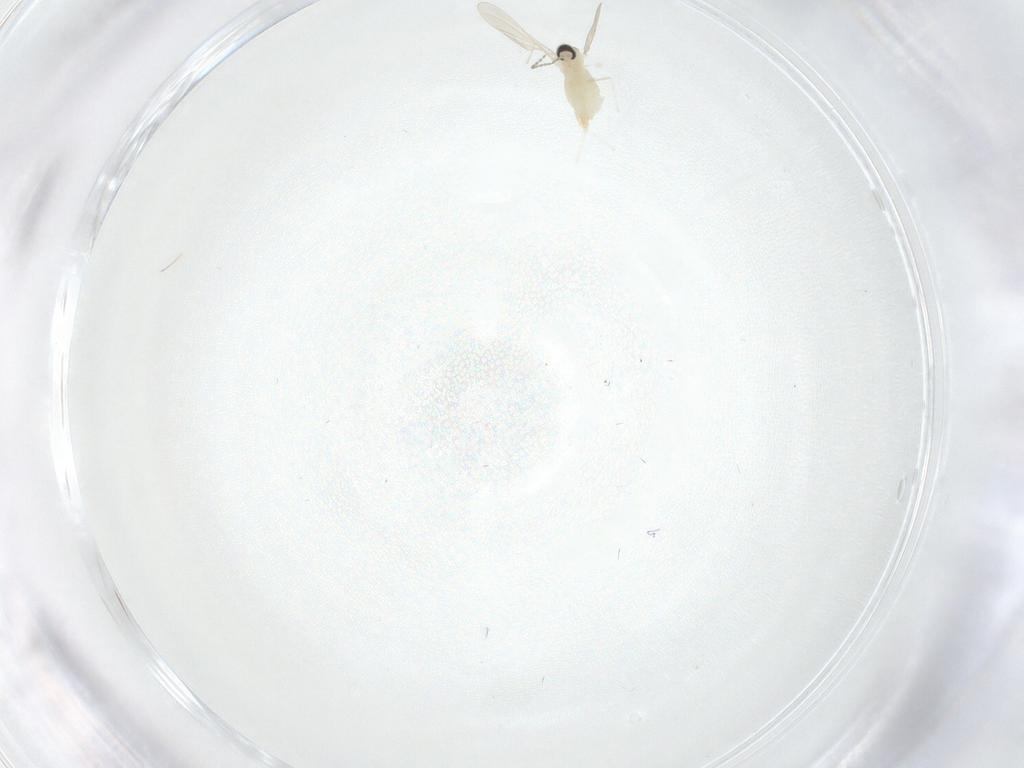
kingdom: Animalia
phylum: Arthropoda
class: Insecta
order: Diptera
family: Cecidomyiidae
